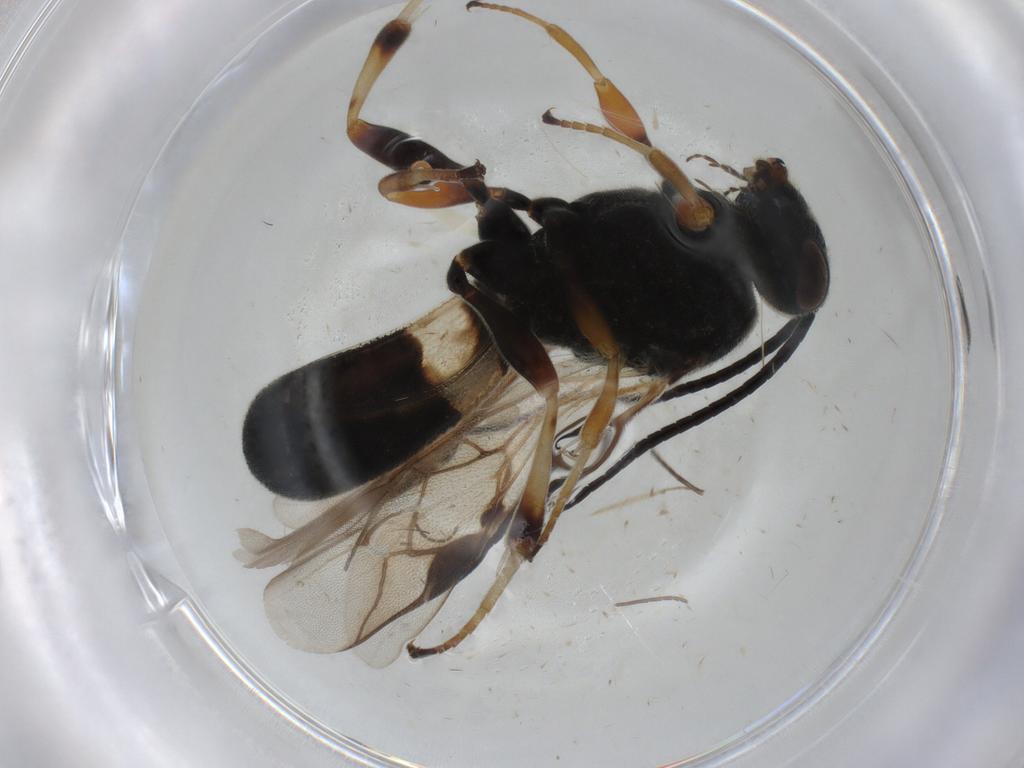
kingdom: Animalia
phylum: Arthropoda
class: Insecta
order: Hymenoptera
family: Braconidae
